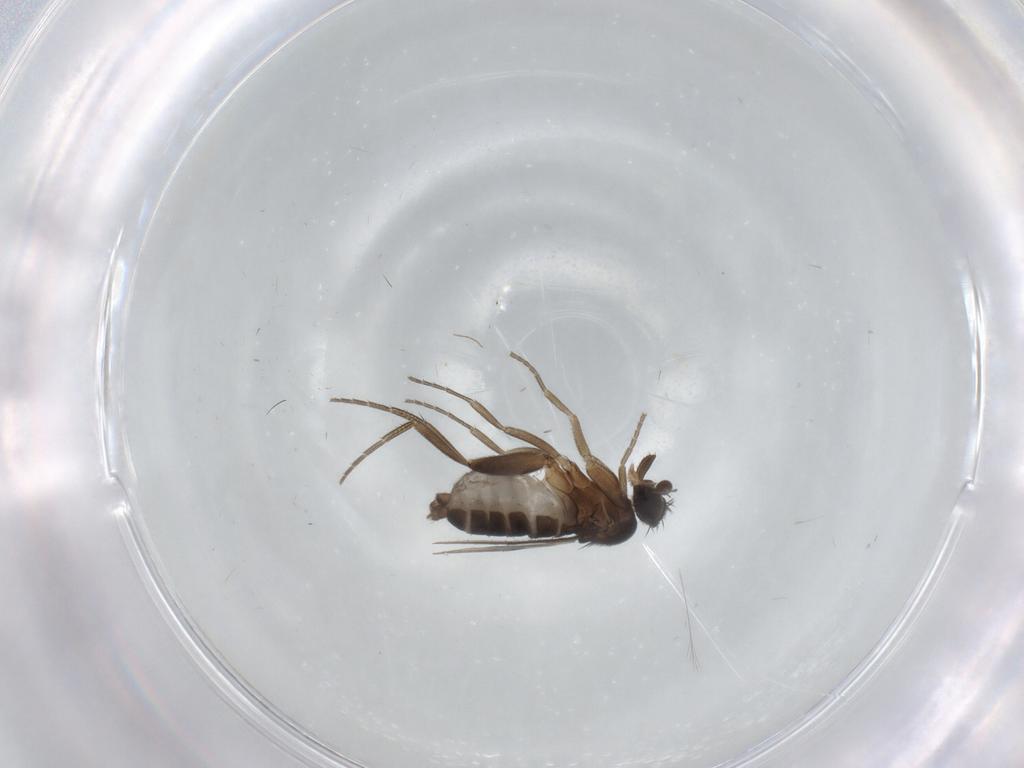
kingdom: Animalia
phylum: Arthropoda
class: Insecta
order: Diptera
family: Phoridae
